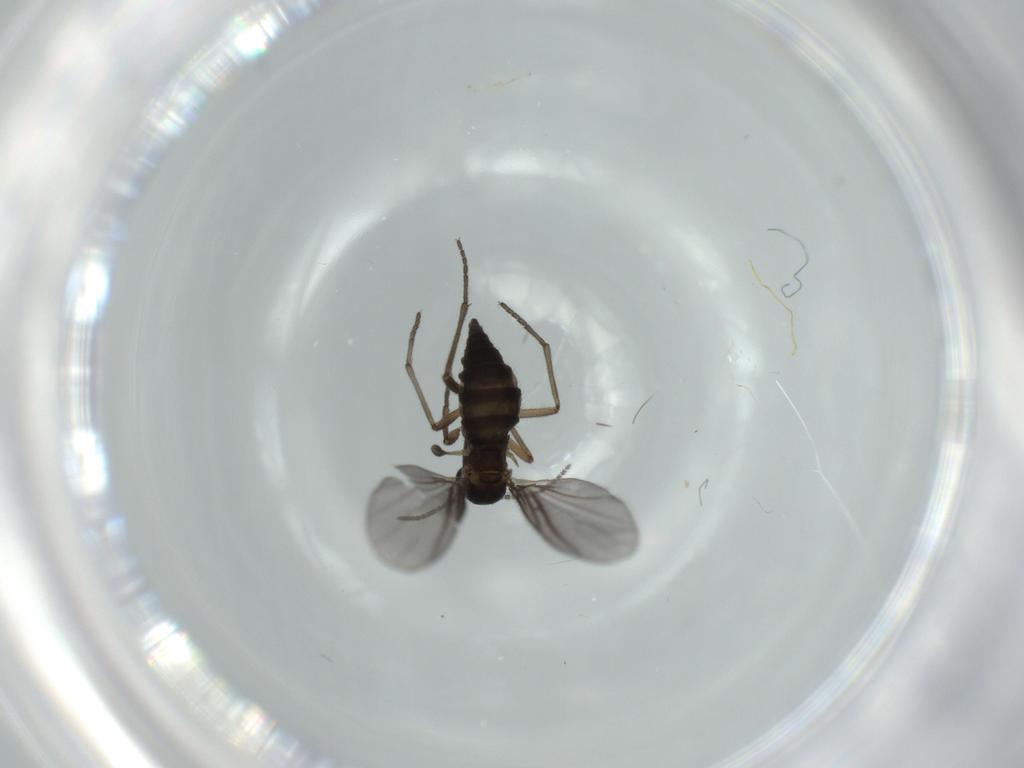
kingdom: Animalia
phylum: Arthropoda
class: Insecta
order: Diptera
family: Sciaridae
